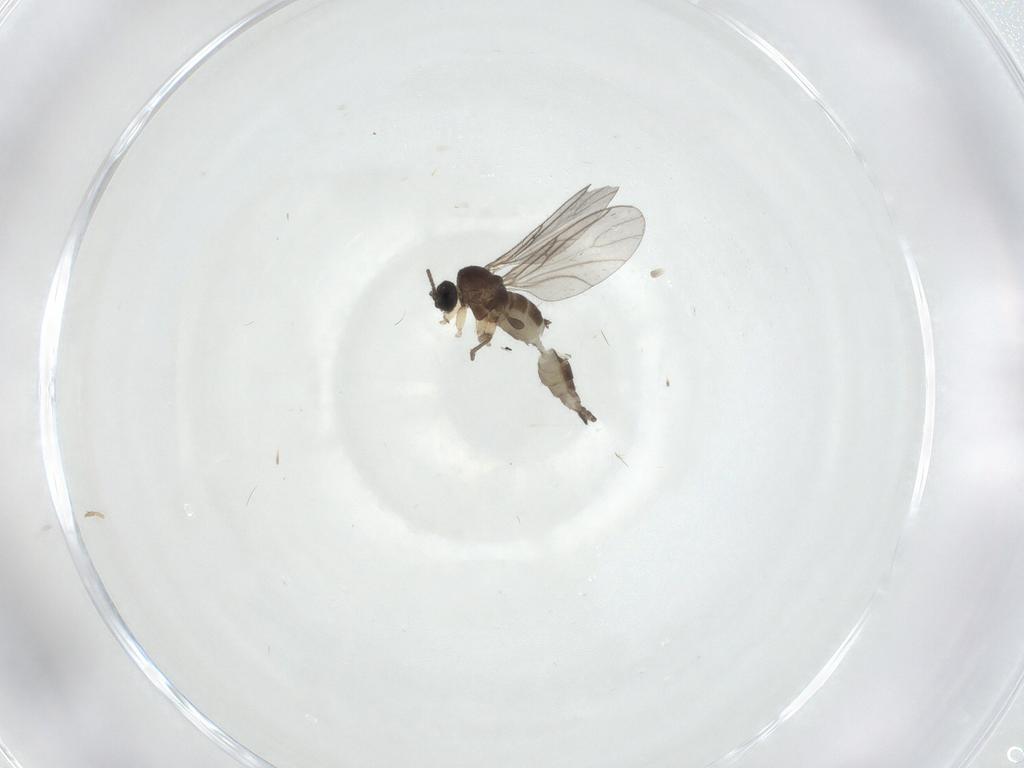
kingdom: Animalia
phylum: Arthropoda
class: Insecta
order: Diptera
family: Sciaridae
